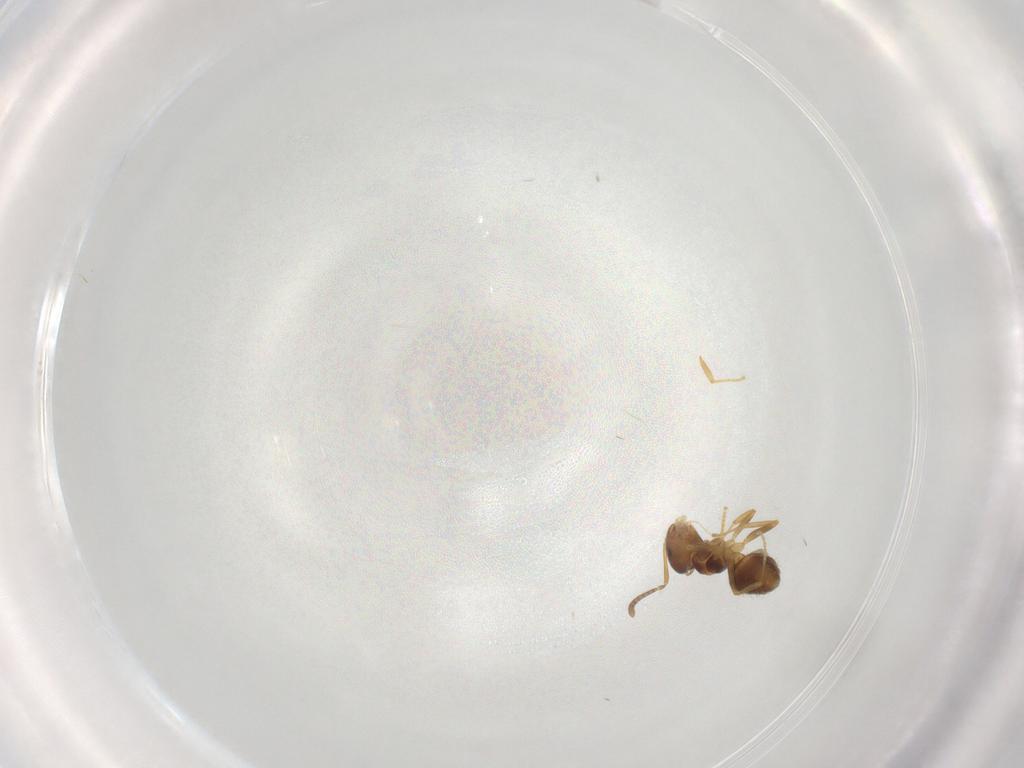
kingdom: Animalia
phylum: Arthropoda
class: Insecta
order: Hymenoptera
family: Formicidae
